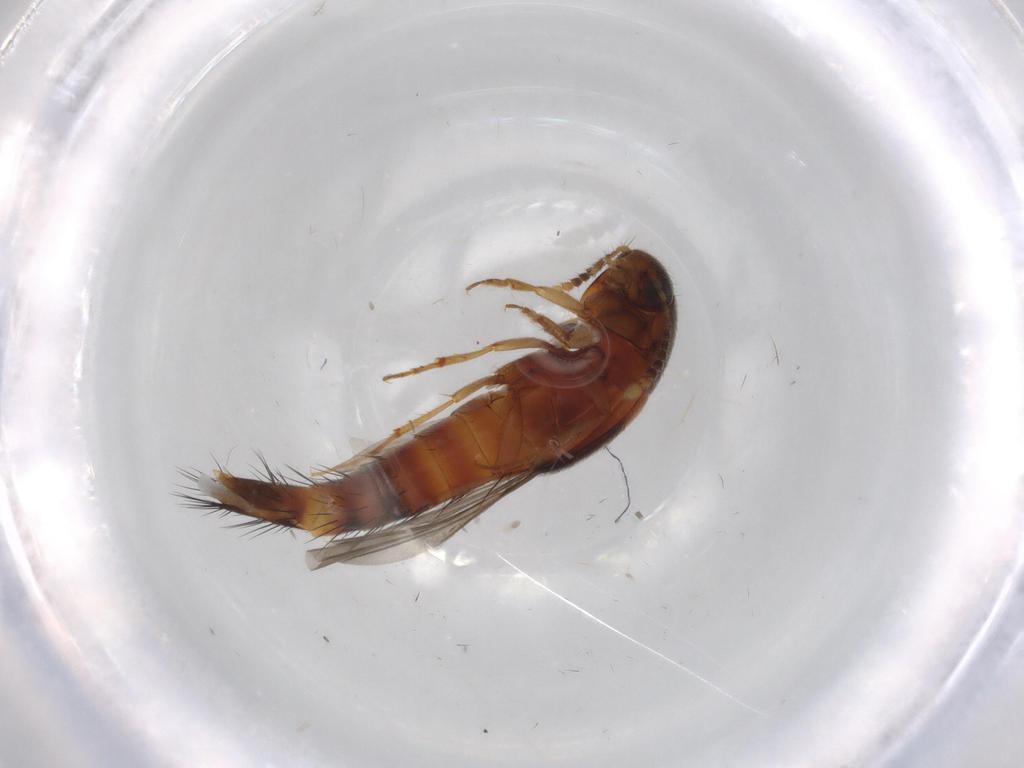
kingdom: Animalia
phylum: Arthropoda
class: Insecta
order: Coleoptera
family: Staphylinidae
